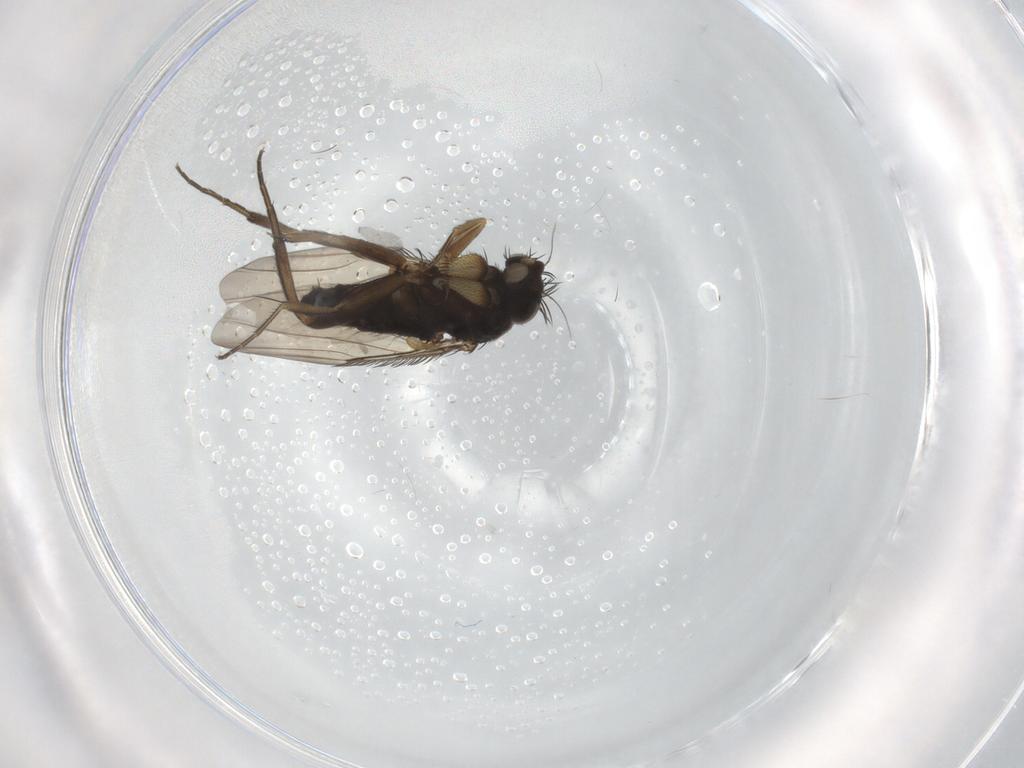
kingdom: Animalia
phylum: Arthropoda
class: Insecta
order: Diptera
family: Phoridae
